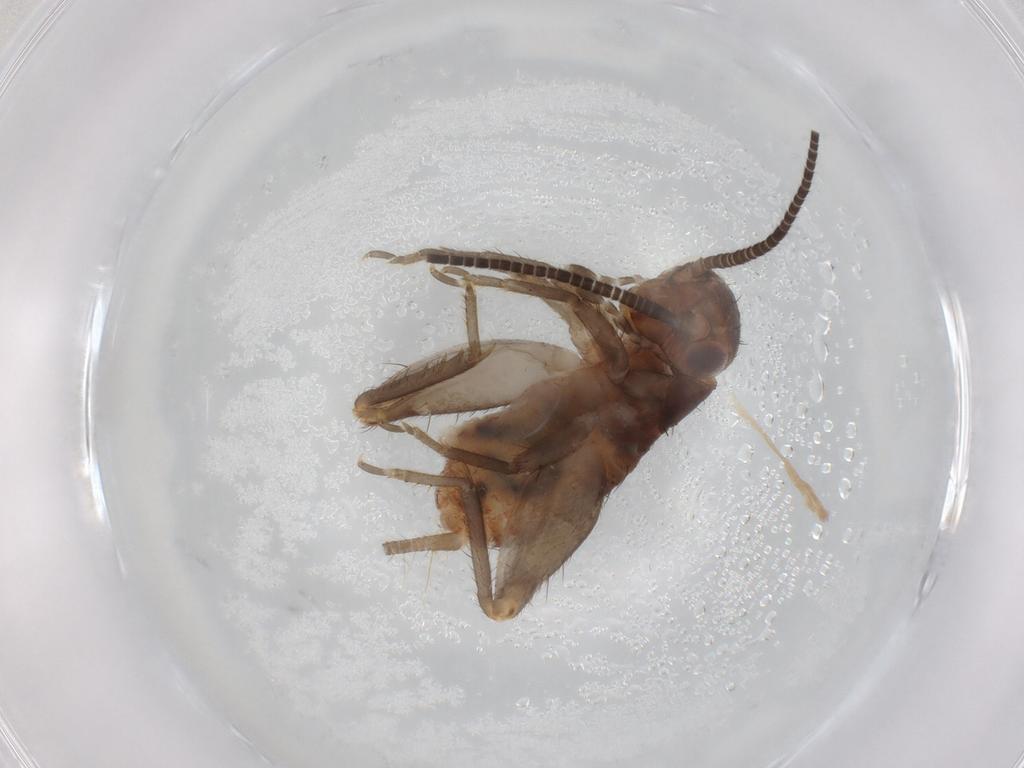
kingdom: Animalia
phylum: Arthropoda
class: Insecta
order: Orthoptera
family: Gryllidae
